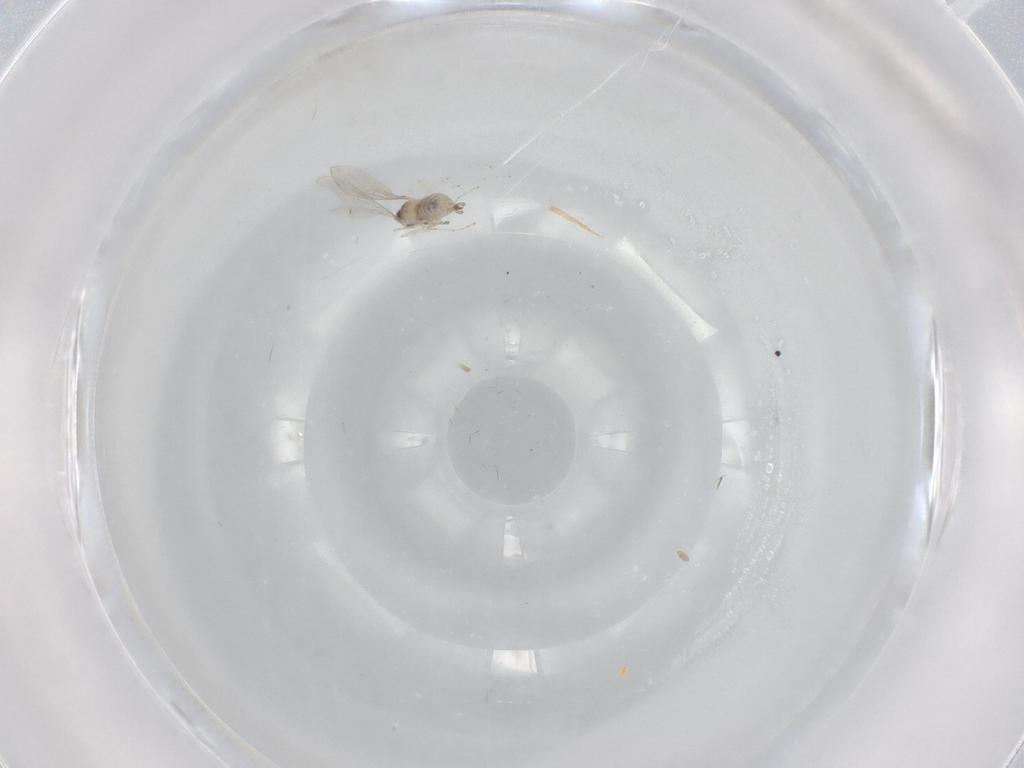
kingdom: Animalia
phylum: Arthropoda
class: Insecta
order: Diptera
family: Cecidomyiidae
